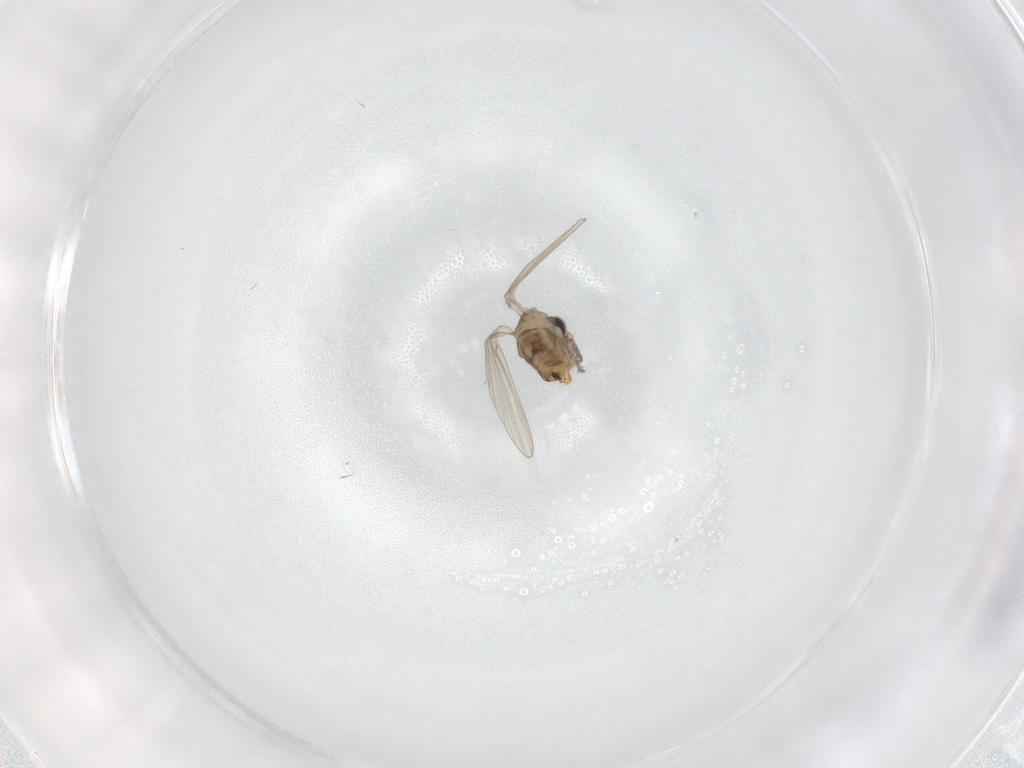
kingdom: Animalia
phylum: Arthropoda
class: Insecta
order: Diptera
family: Psychodidae
